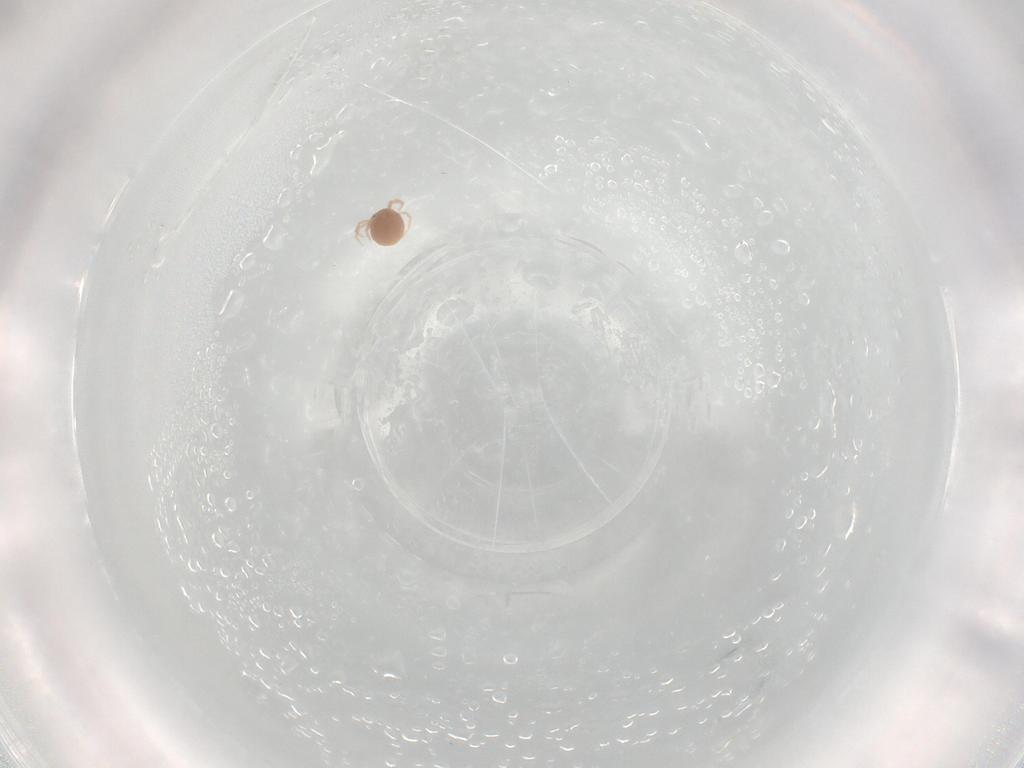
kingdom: Animalia
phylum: Arthropoda
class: Arachnida
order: Trombidiformes
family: Lebertiidae
